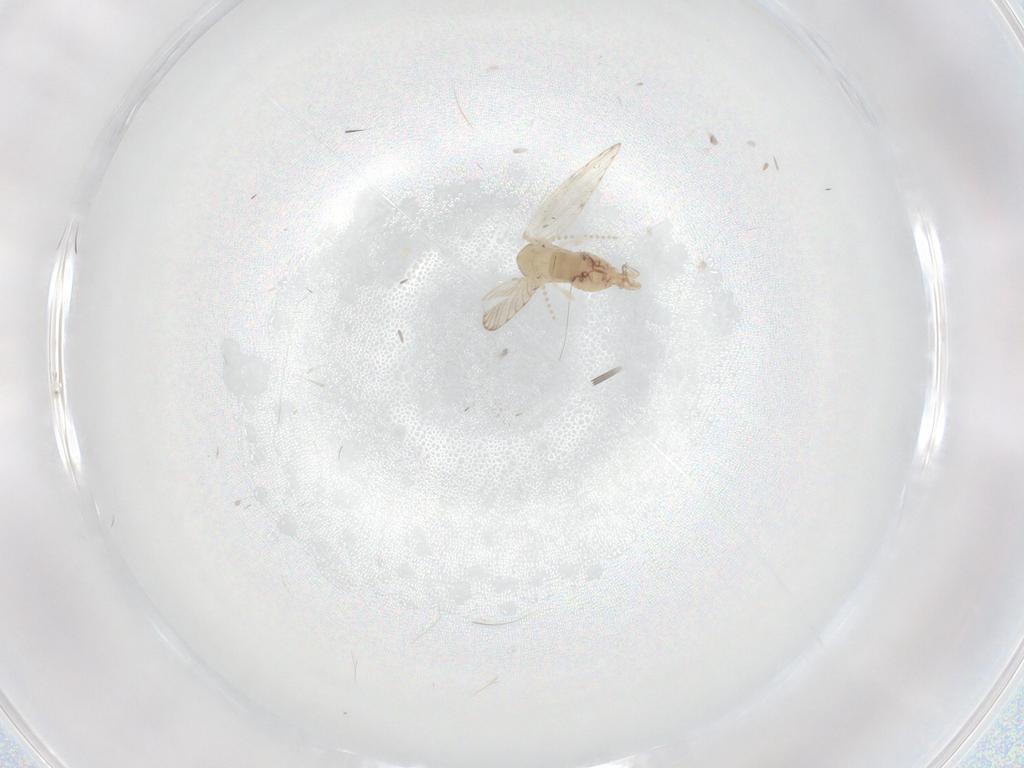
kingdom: Animalia
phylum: Arthropoda
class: Insecta
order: Diptera
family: Psychodidae
